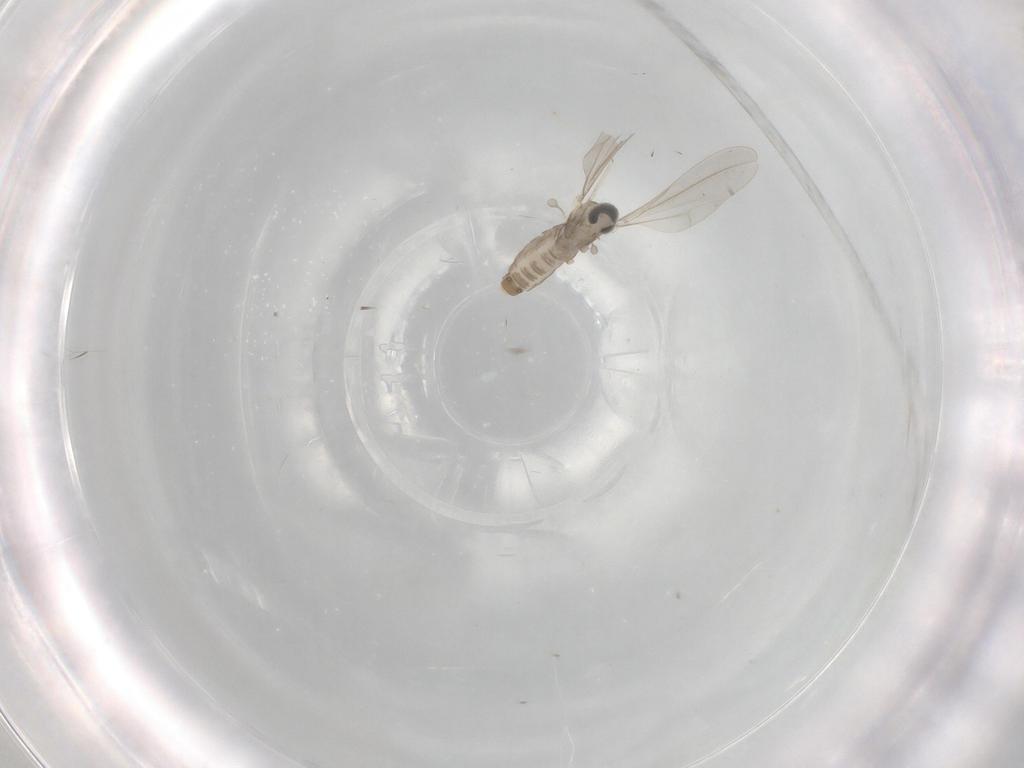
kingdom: Animalia
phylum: Arthropoda
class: Insecta
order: Diptera
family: Cecidomyiidae
